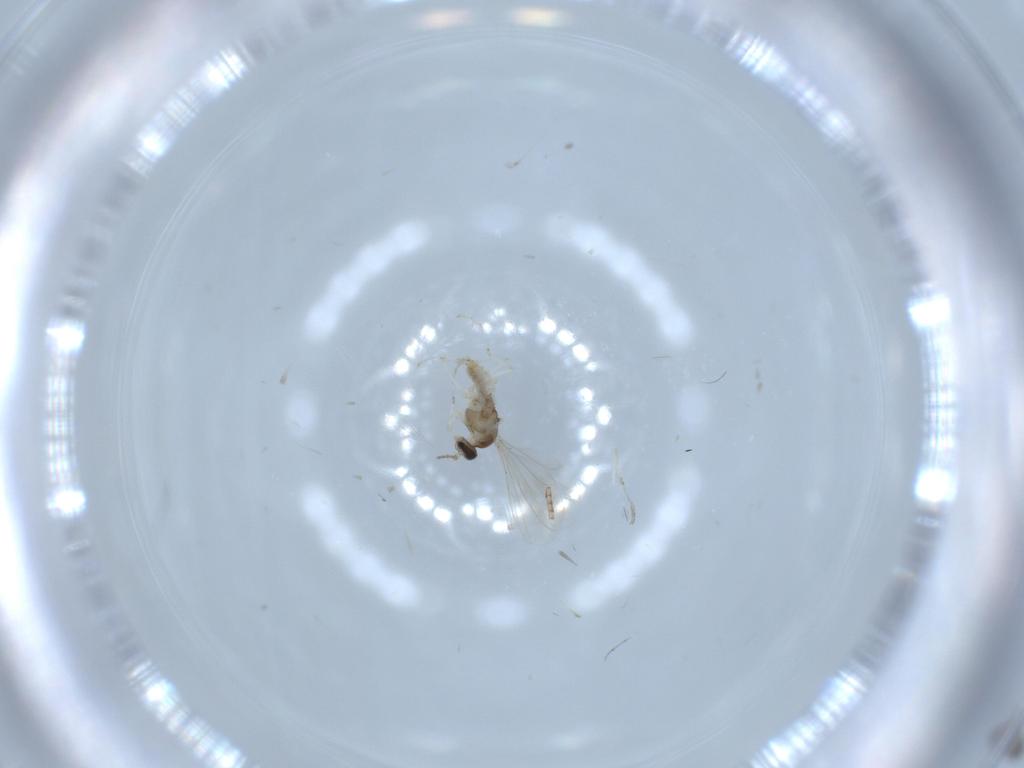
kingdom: Animalia
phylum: Arthropoda
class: Insecta
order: Diptera
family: Cecidomyiidae
